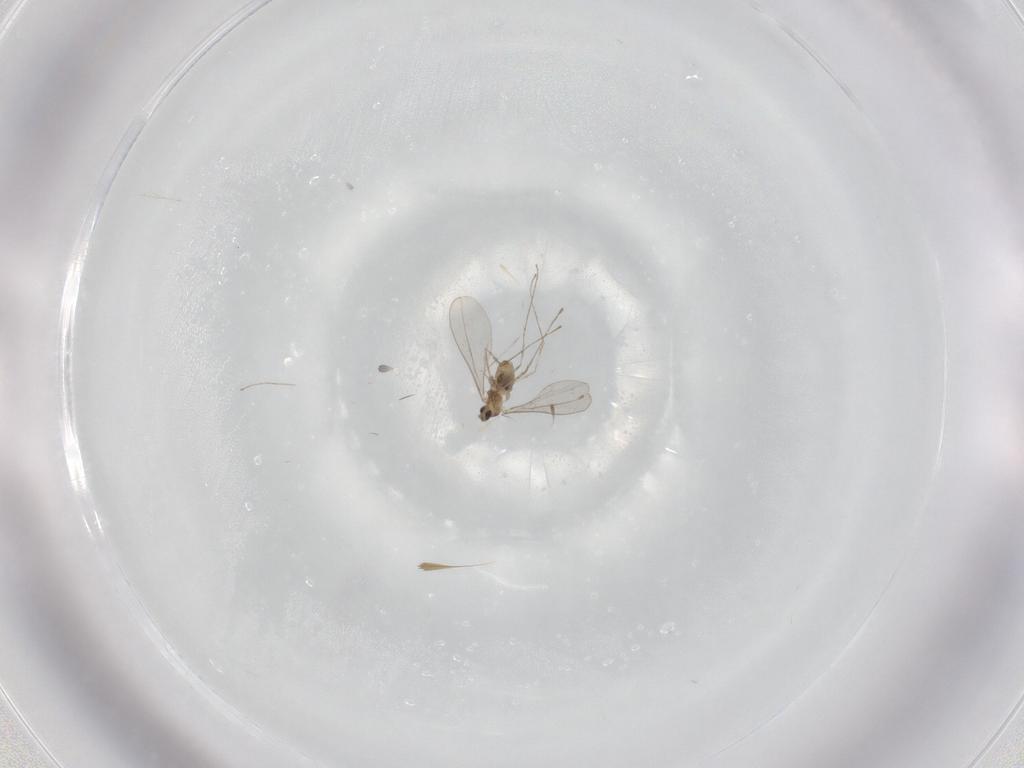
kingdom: Animalia
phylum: Arthropoda
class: Insecta
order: Diptera
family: Cecidomyiidae
